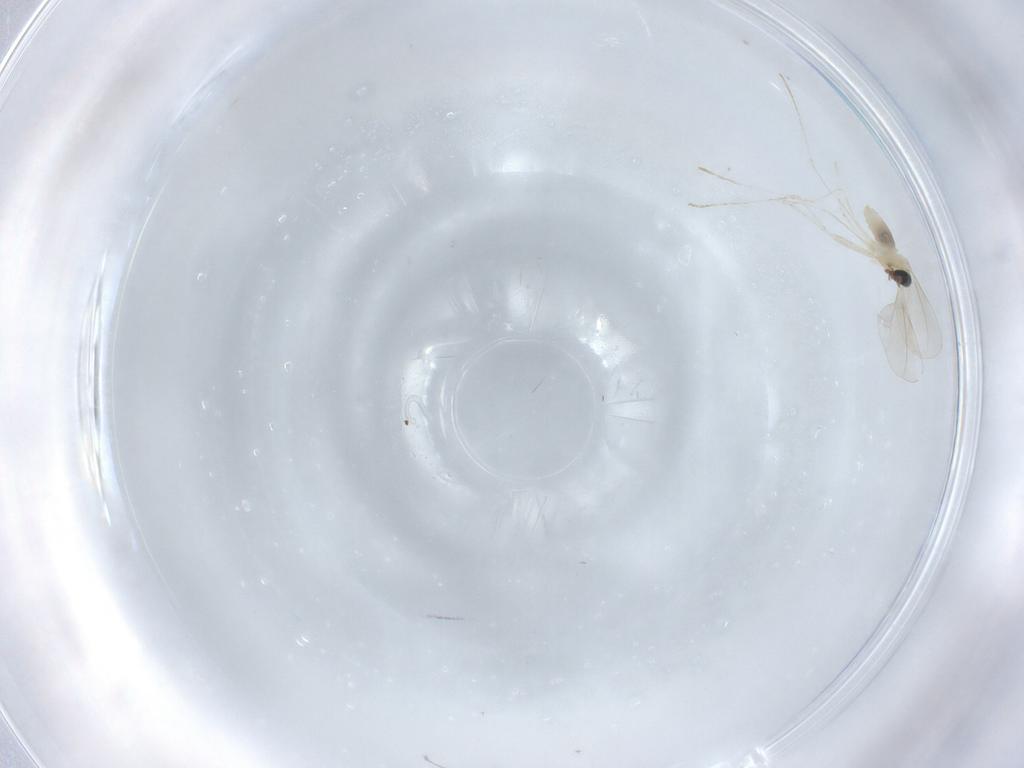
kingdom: Animalia
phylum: Arthropoda
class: Insecta
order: Diptera
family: Cecidomyiidae
